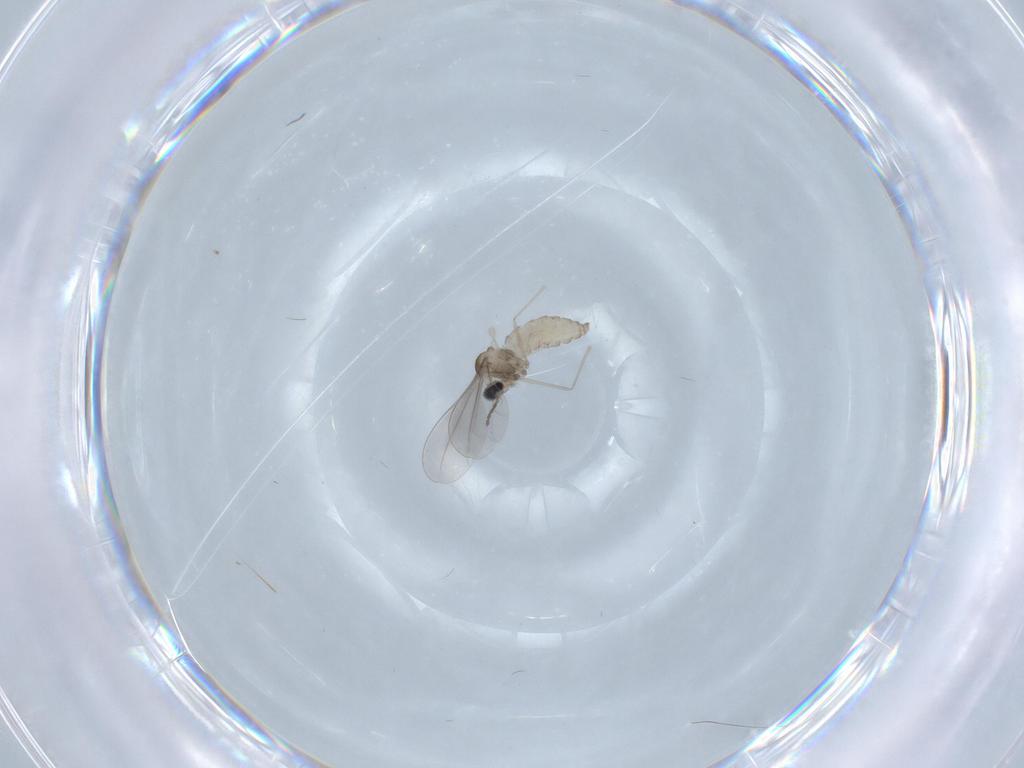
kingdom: Animalia
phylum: Arthropoda
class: Insecta
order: Diptera
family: Cecidomyiidae
